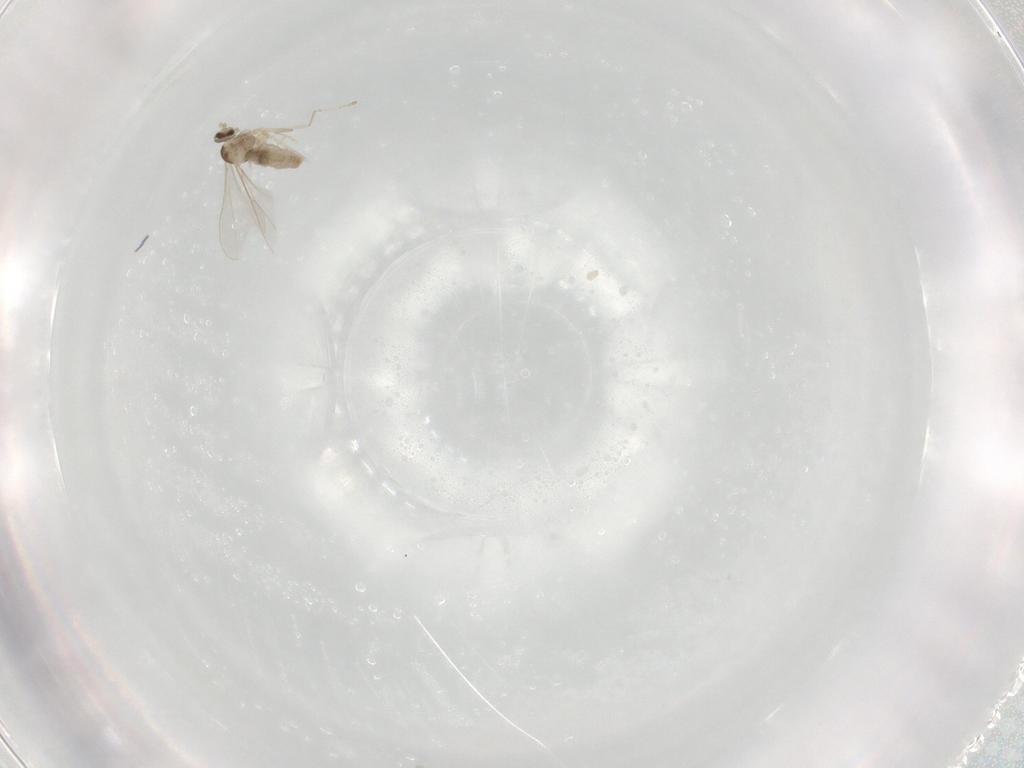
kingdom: Animalia
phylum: Arthropoda
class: Insecta
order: Diptera
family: Cecidomyiidae
